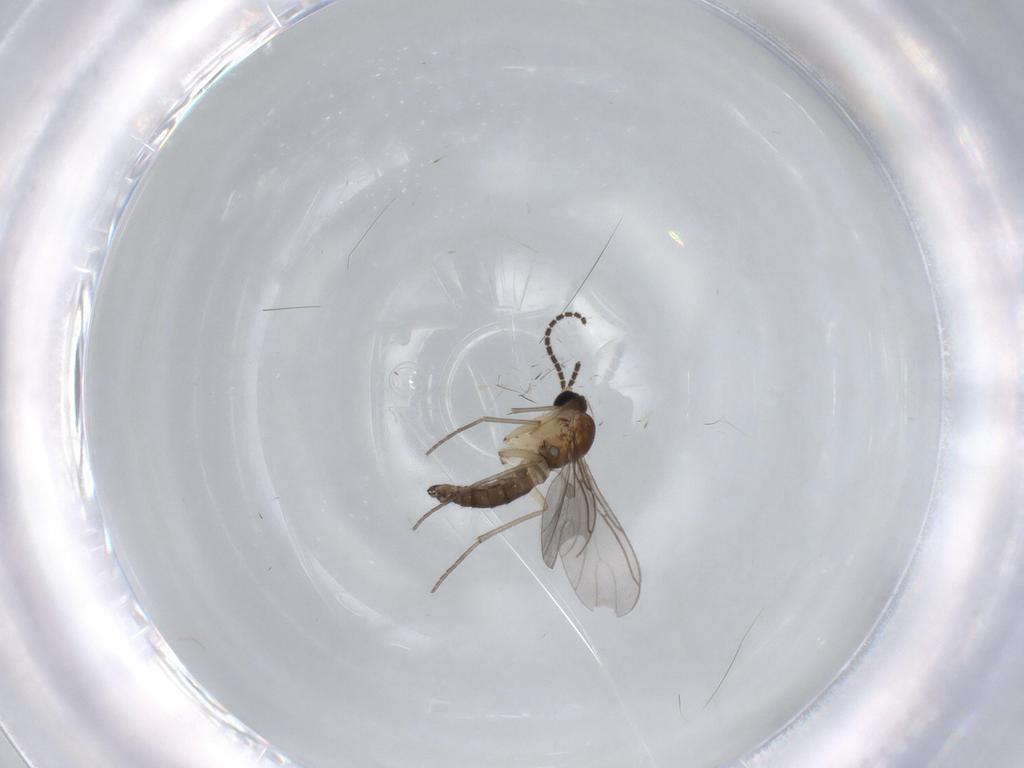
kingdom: Animalia
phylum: Arthropoda
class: Insecta
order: Diptera
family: Sciaridae
